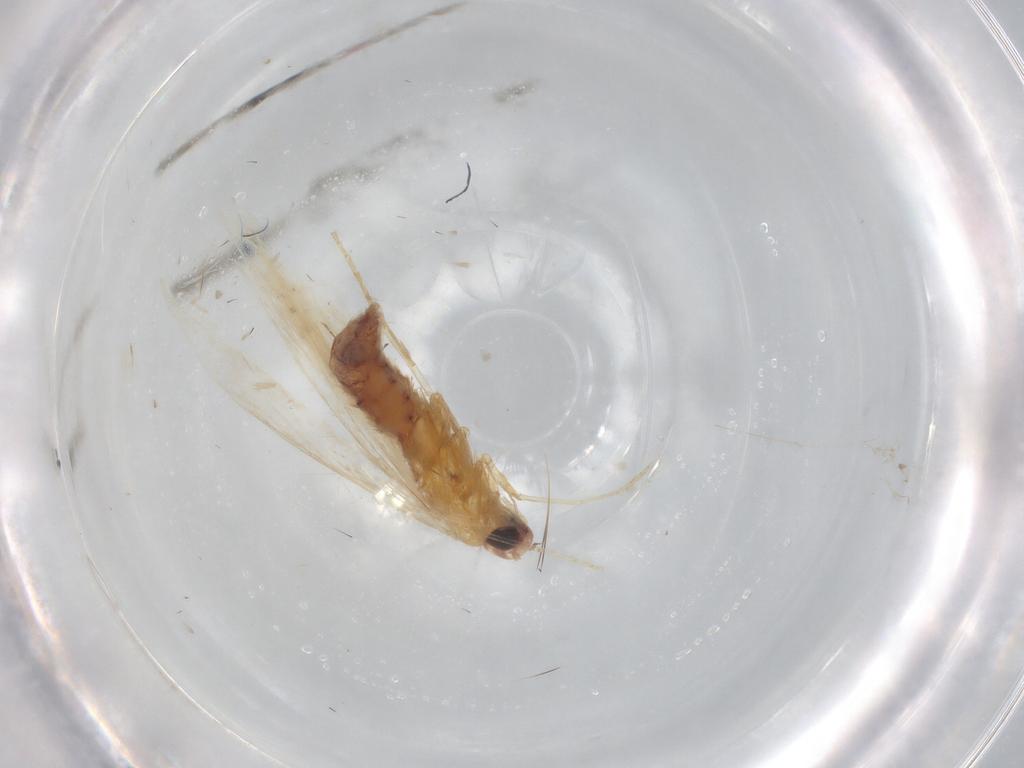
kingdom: Animalia
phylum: Arthropoda
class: Insecta
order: Lepidoptera
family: Coleophoridae
